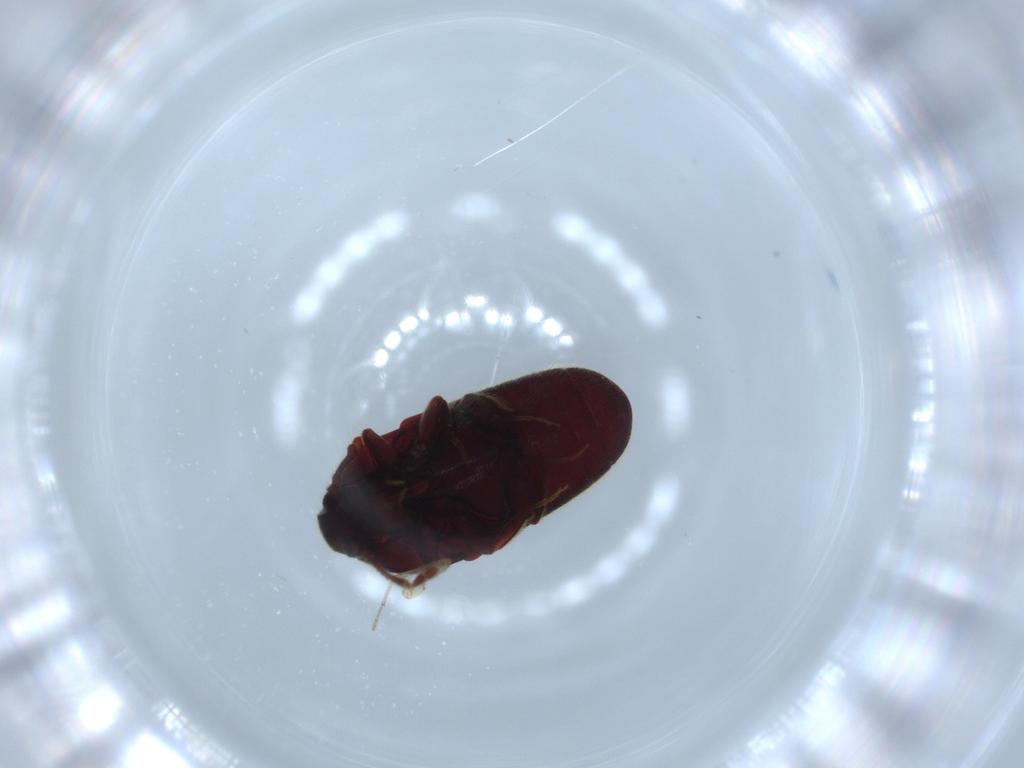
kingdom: Animalia
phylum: Arthropoda
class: Insecta
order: Coleoptera
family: Throscidae
